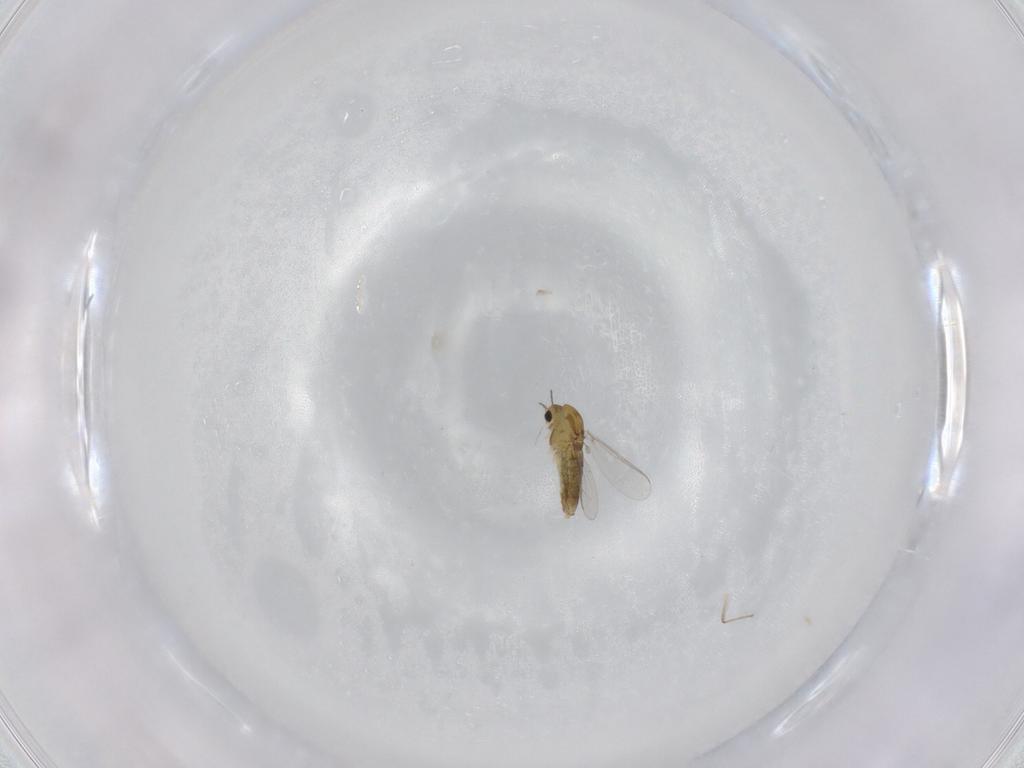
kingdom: Animalia
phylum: Arthropoda
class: Insecta
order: Diptera
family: Chironomidae
